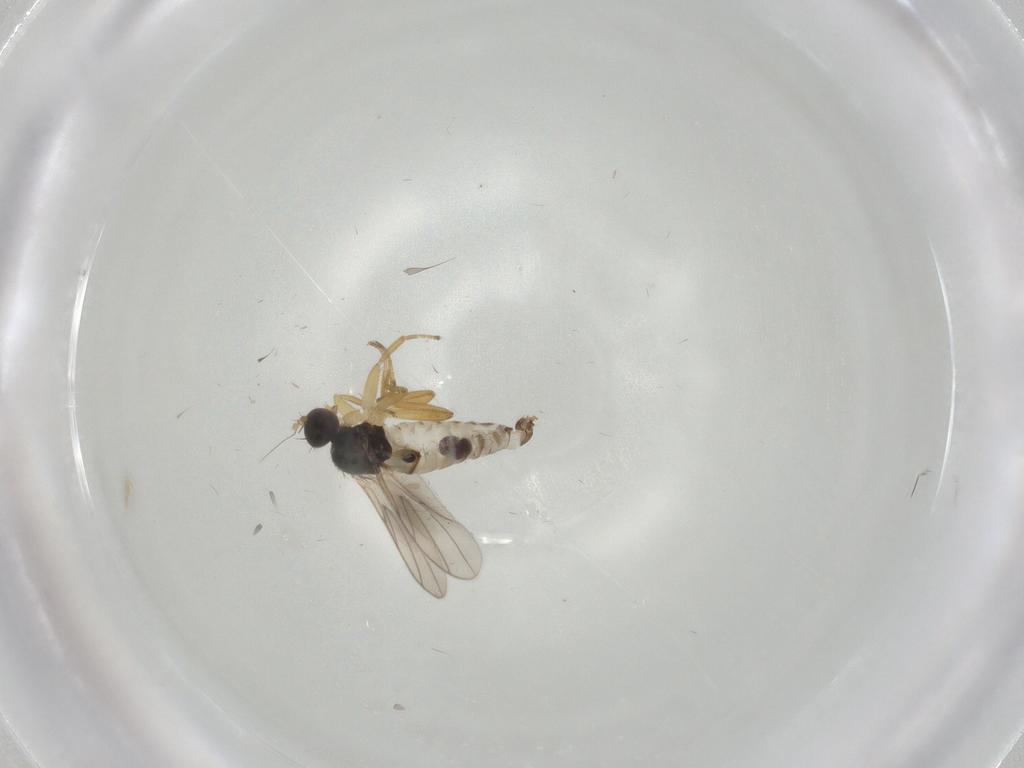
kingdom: Animalia
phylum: Arthropoda
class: Insecta
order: Diptera
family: Hybotidae
